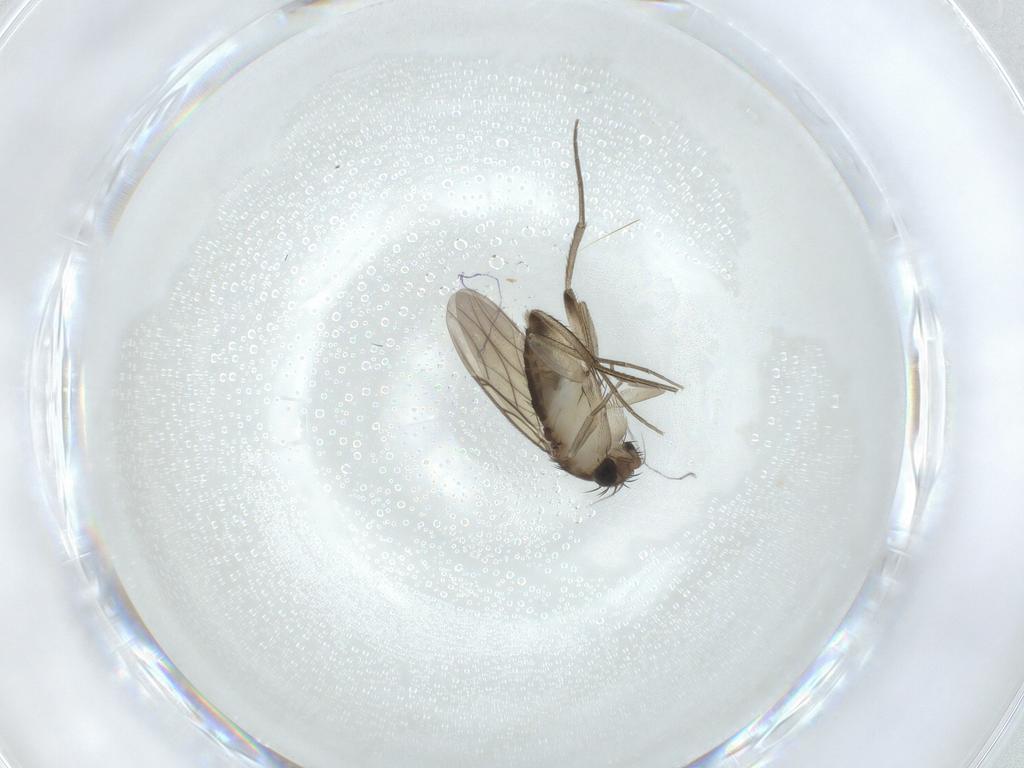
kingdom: Animalia
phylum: Arthropoda
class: Insecta
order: Diptera
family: Phoridae
